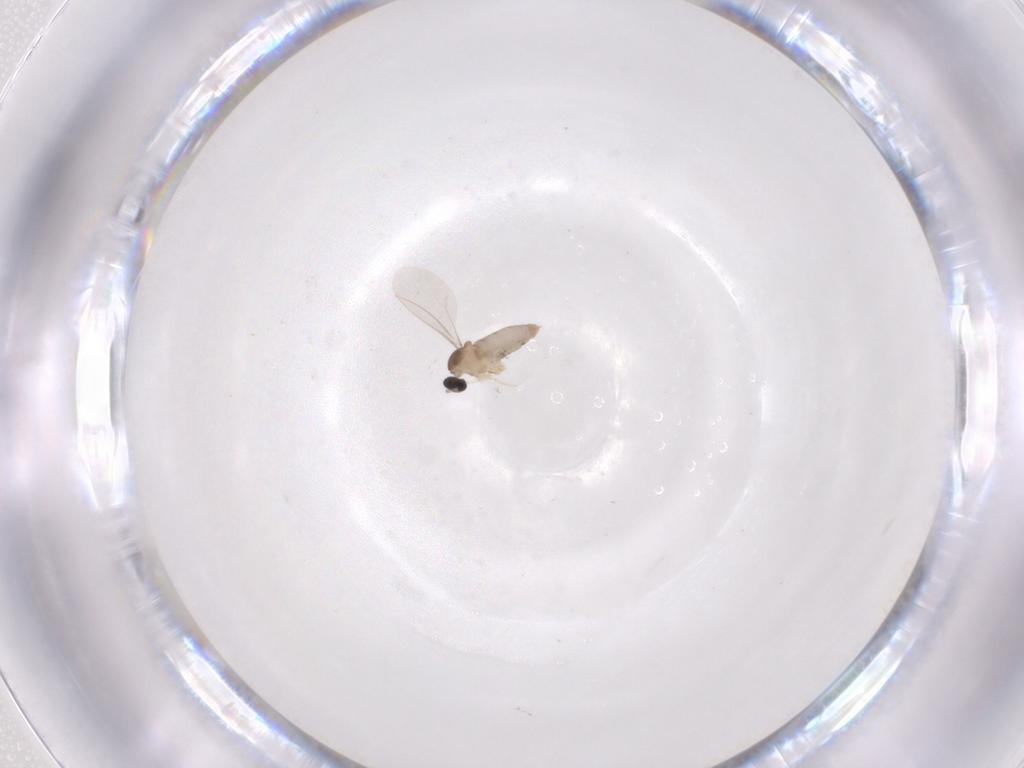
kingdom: Animalia
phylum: Arthropoda
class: Insecta
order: Diptera
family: Cecidomyiidae
